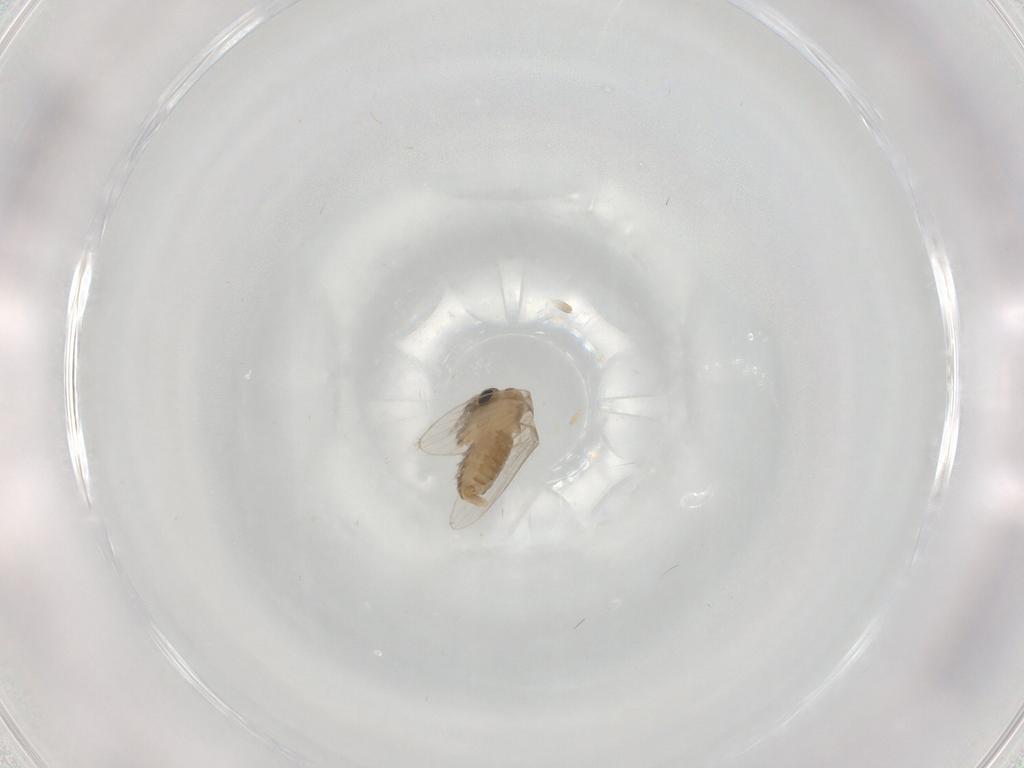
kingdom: Animalia
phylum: Arthropoda
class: Insecta
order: Diptera
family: Psychodidae
